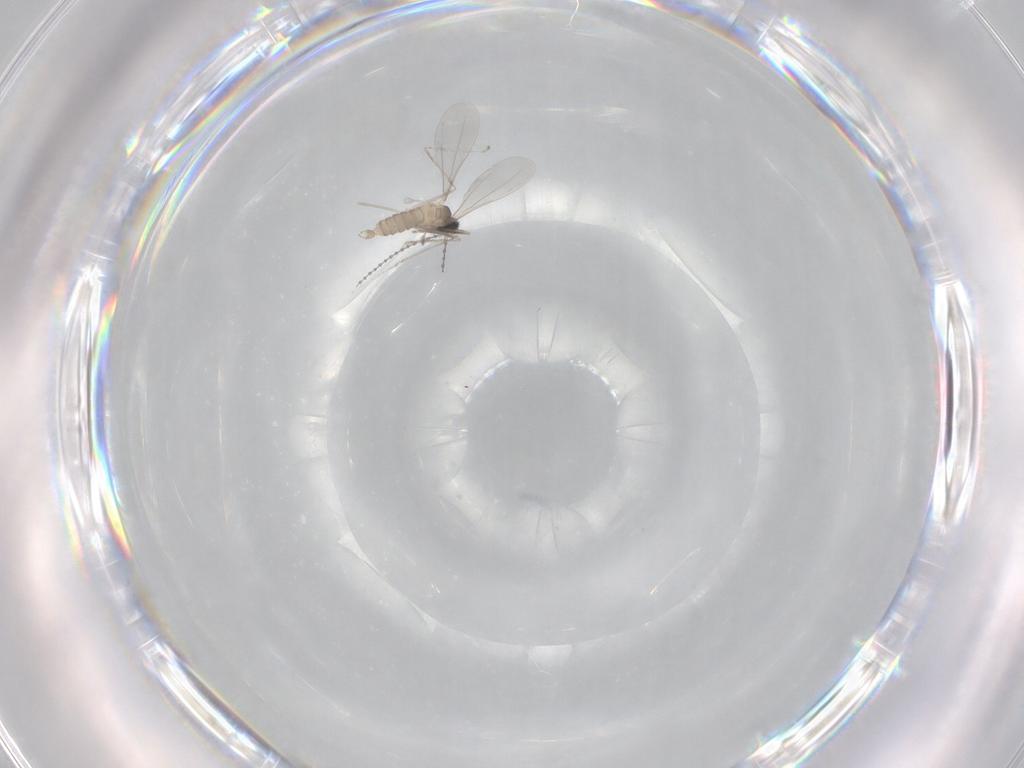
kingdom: Animalia
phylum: Arthropoda
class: Insecta
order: Diptera
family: Cecidomyiidae
